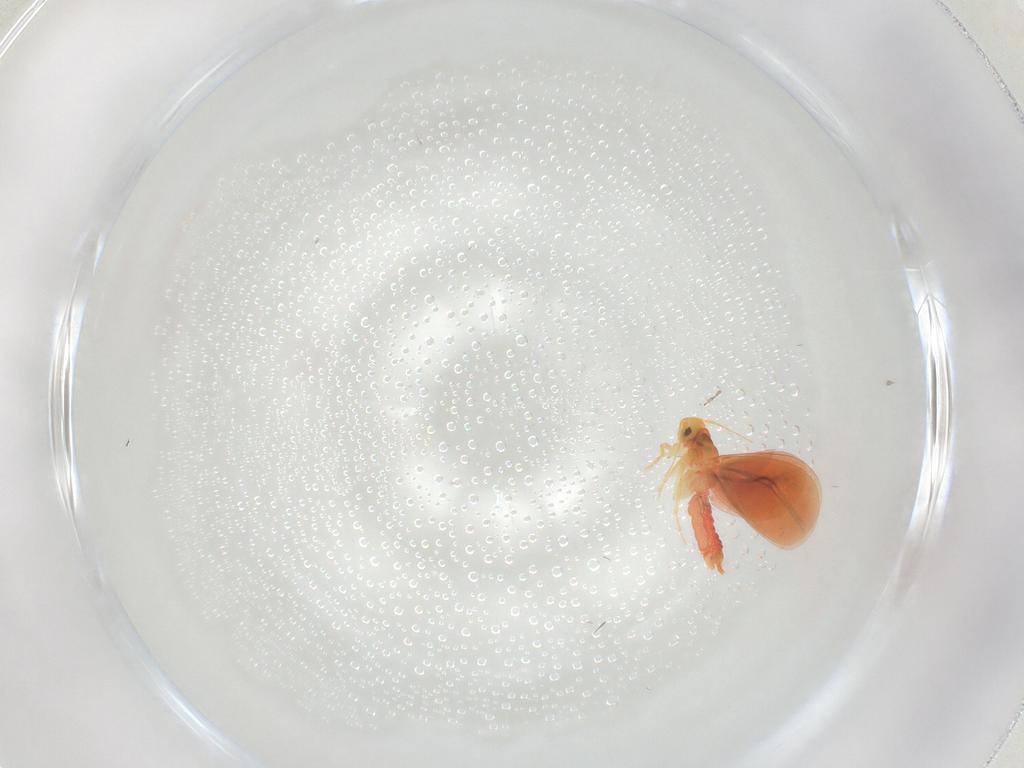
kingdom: Animalia
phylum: Arthropoda
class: Insecta
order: Hemiptera
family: Aleyrodidae
